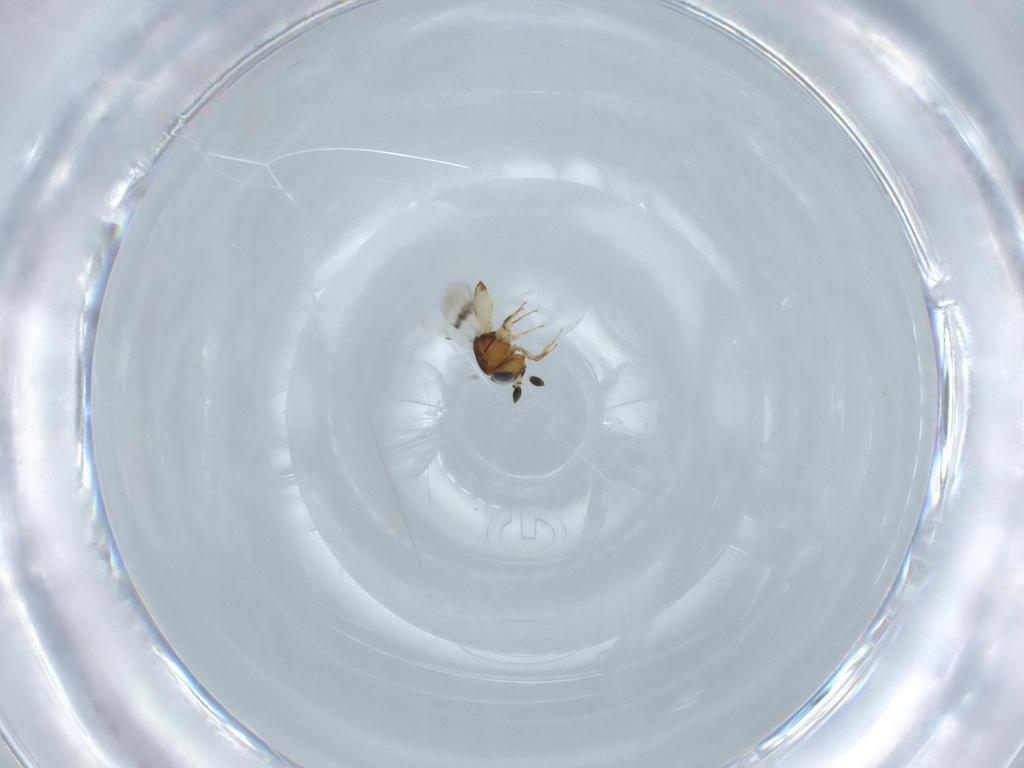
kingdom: Animalia
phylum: Arthropoda
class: Arachnida
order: Araneae
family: Pholcidae
